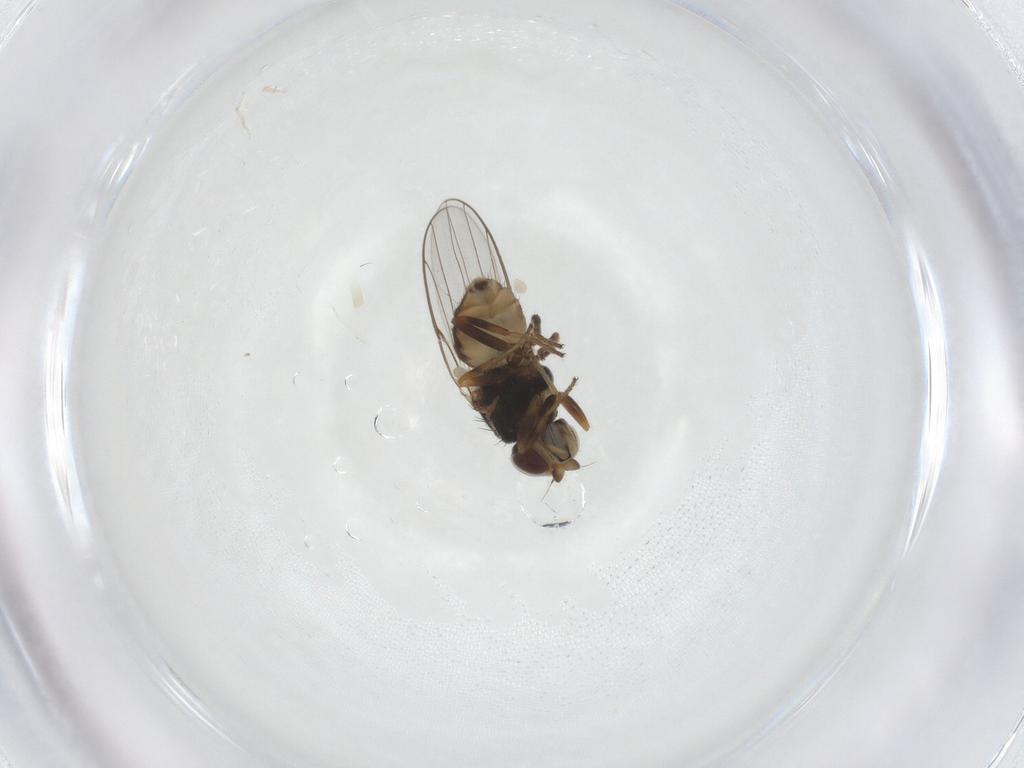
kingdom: Animalia
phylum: Arthropoda
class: Insecta
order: Diptera
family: Chloropidae
